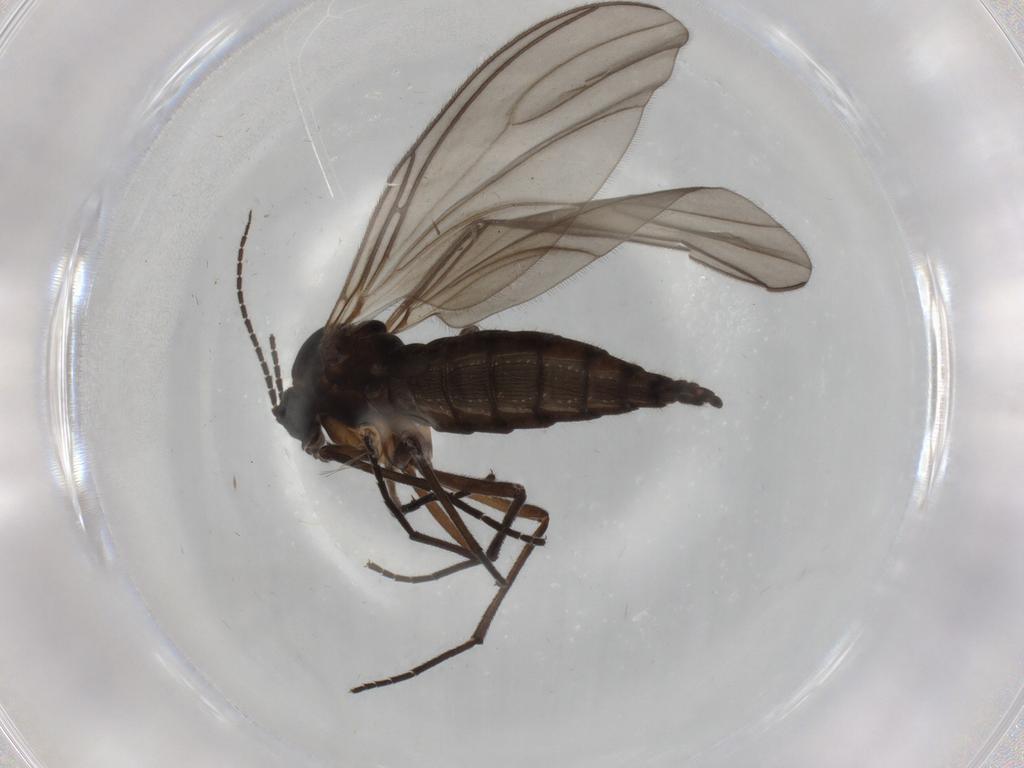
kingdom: Animalia
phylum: Arthropoda
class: Insecta
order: Diptera
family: Sciaridae
